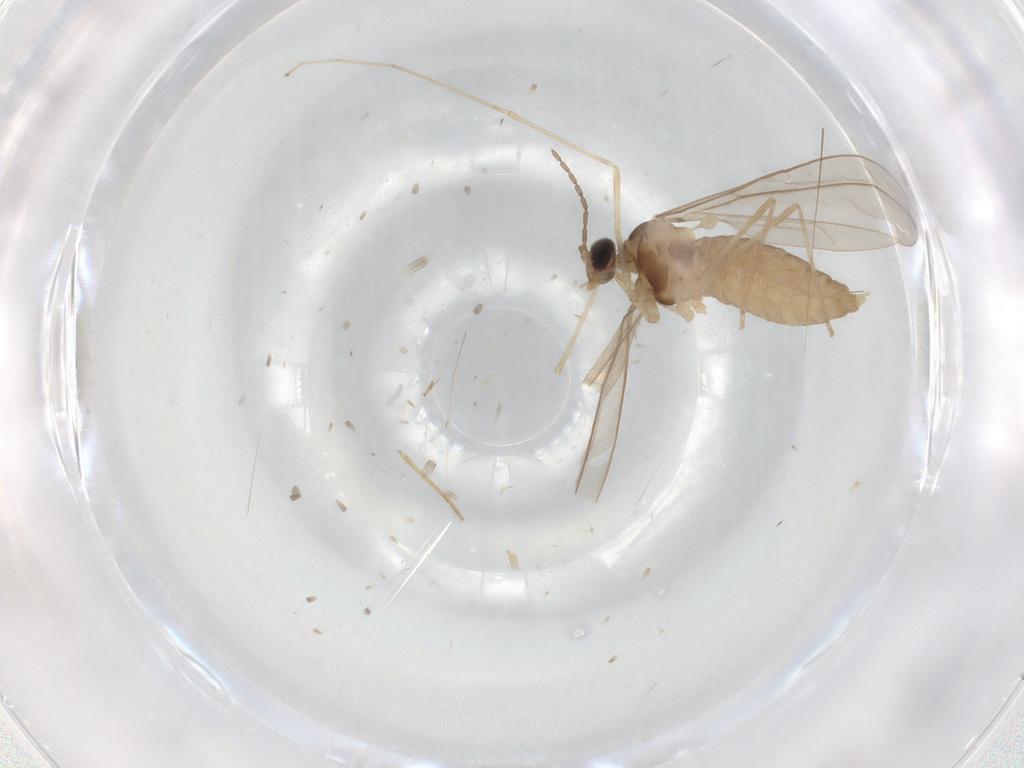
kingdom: Animalia
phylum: Arthropoda
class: Insecta
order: Diptera
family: Cecidomyiidae
